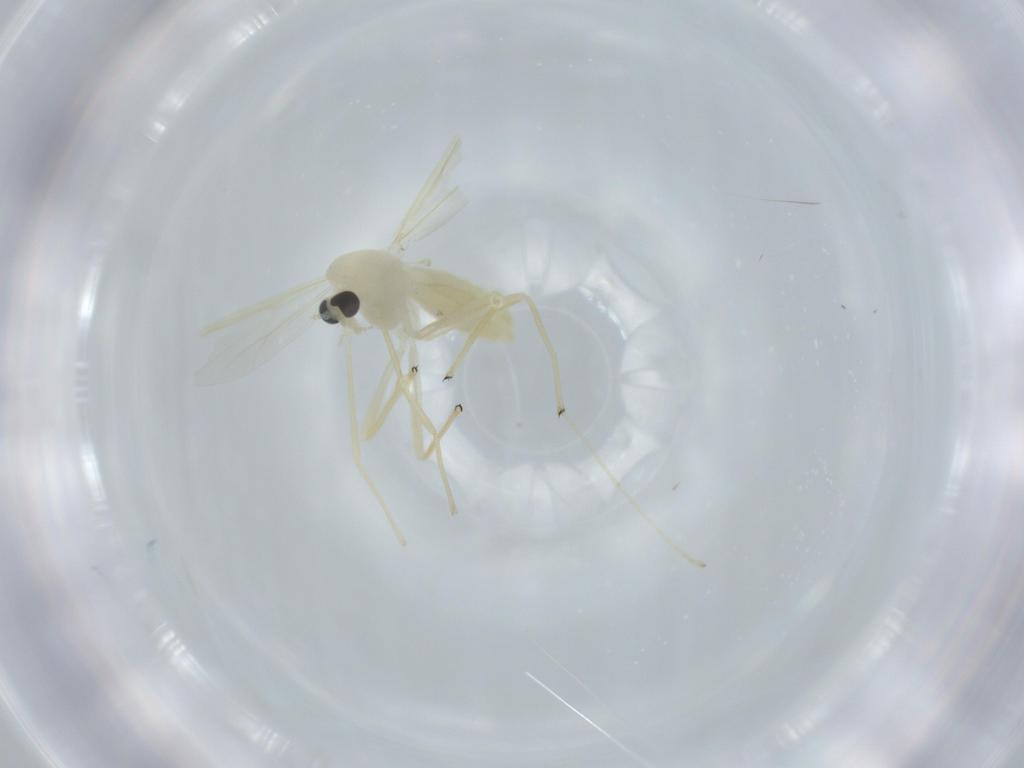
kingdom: Animalia
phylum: Arthropoda
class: Insecta
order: Diptera
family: Chironomidae
